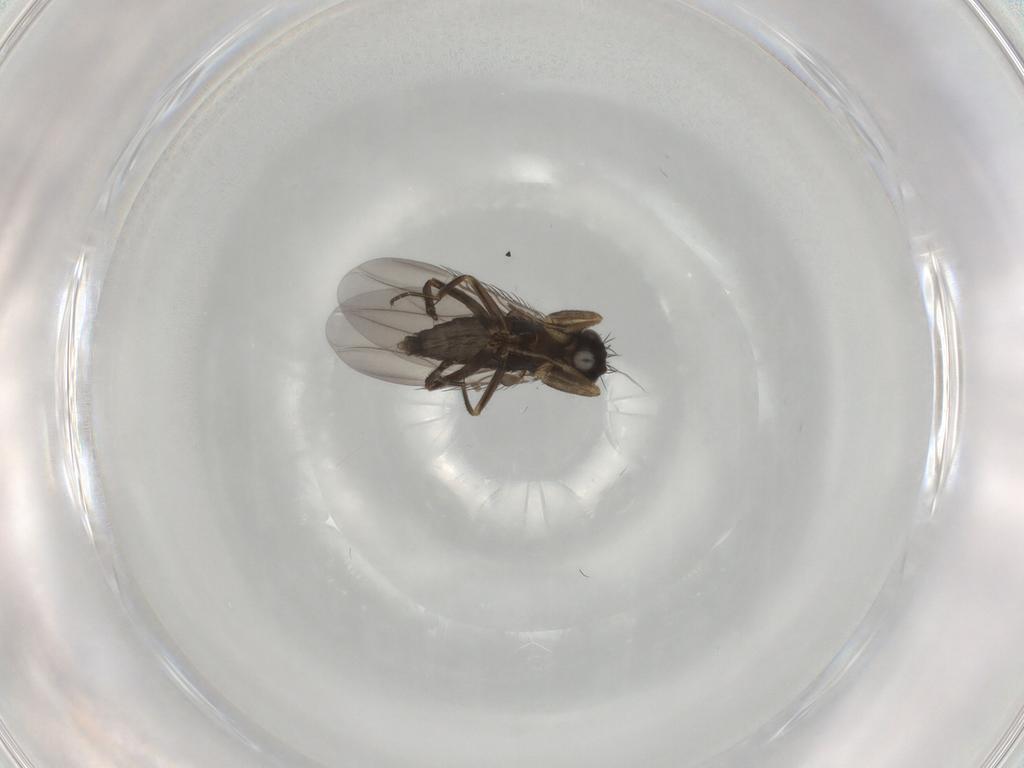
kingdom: Animalia
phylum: Arthropoda
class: Insecta
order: Diptera
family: Phoridae
